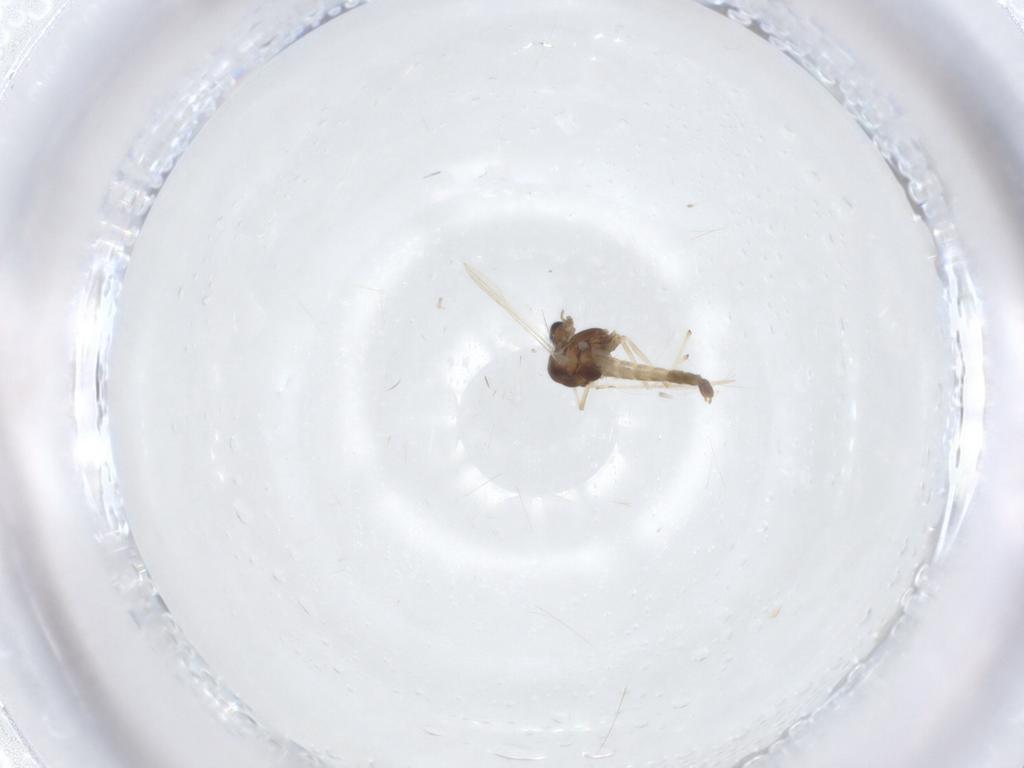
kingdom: Animalia
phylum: Arthropoda
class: Insecta
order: Diptera
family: Chironomidae
